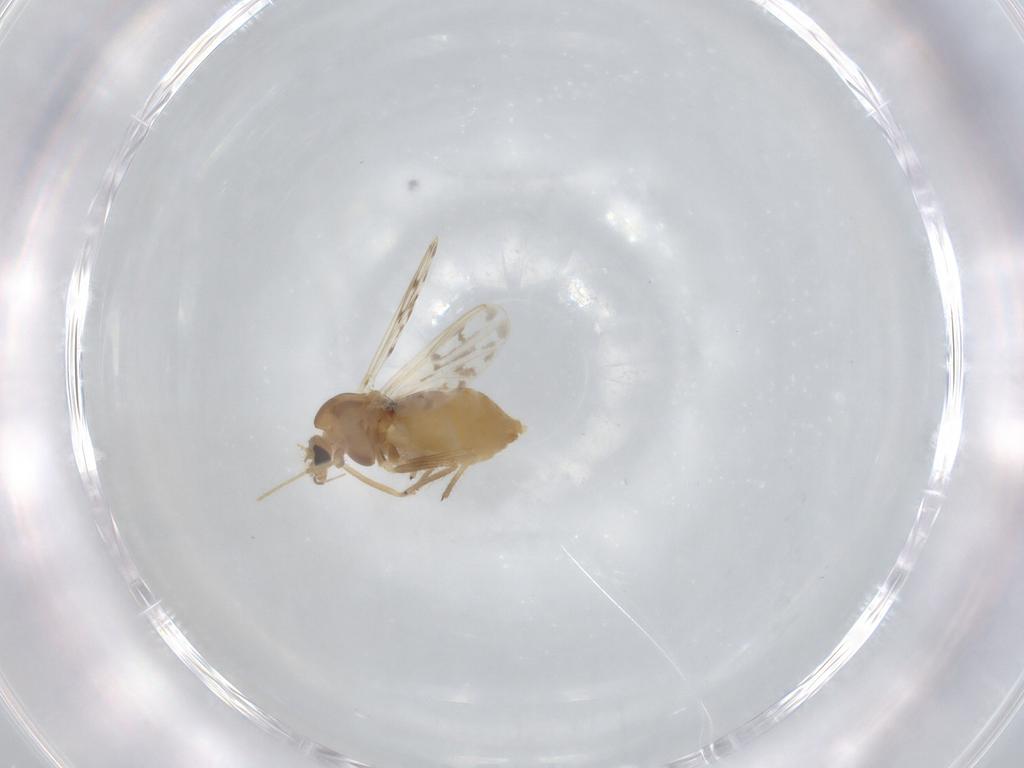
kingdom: Animalia
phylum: Arthropoda
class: Insecta
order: Diptera
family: Chironomidae
